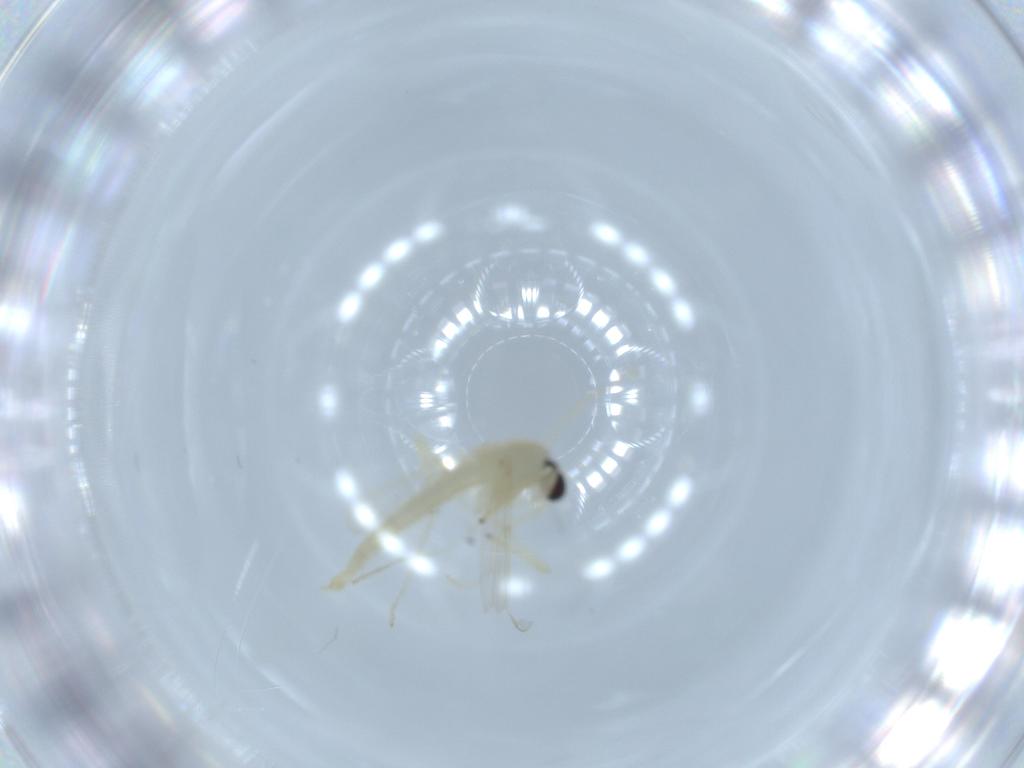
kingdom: Animalia
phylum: Arthropoda
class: Insecta
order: Diptera
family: Chironomidae
